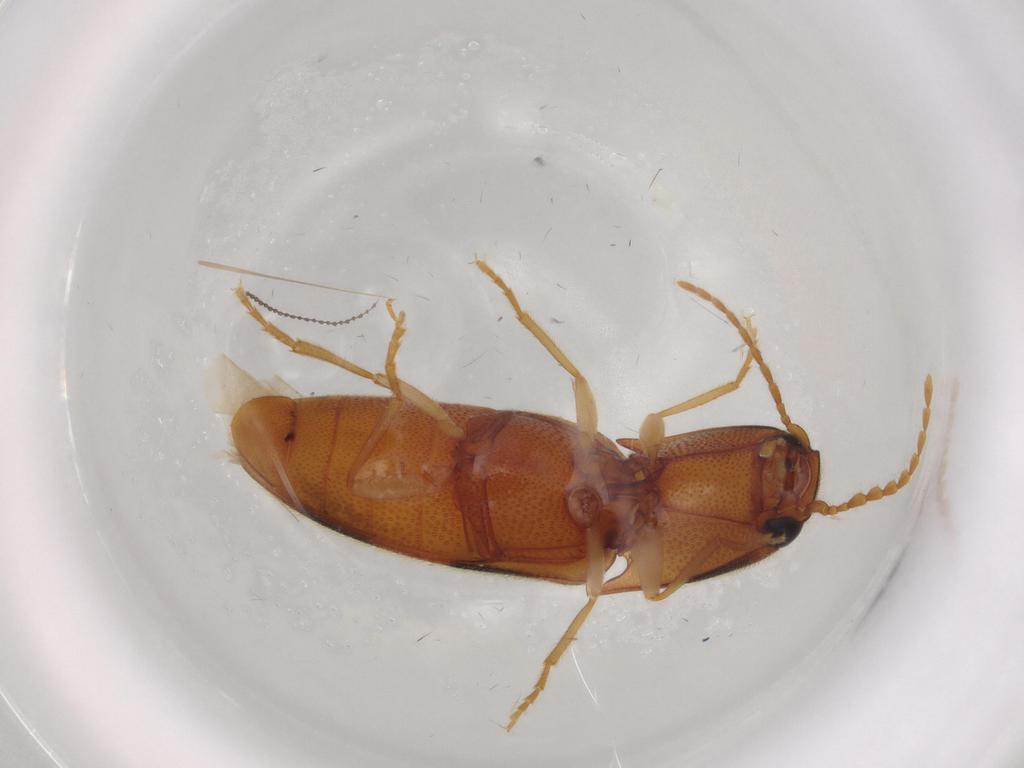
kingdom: Animalia
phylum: Arthropoda
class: Insecta
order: Coleoptera
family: Elateridae
